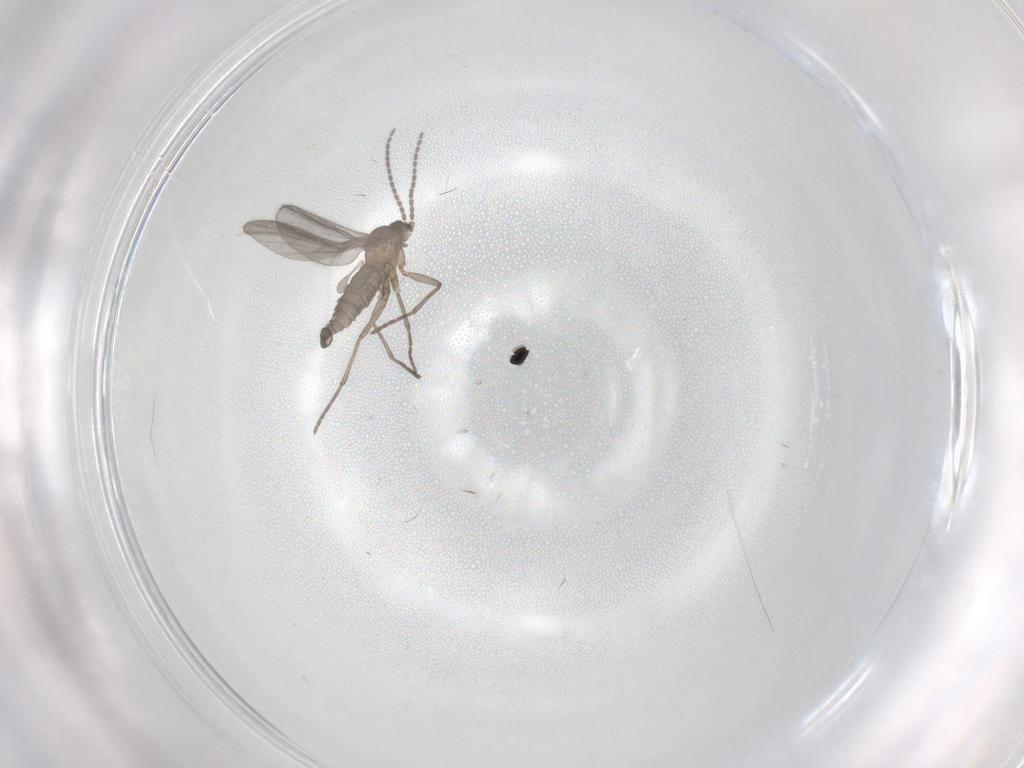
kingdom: Animalia
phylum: Arthropoda
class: Insecta
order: Diptera
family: Sciaridae
